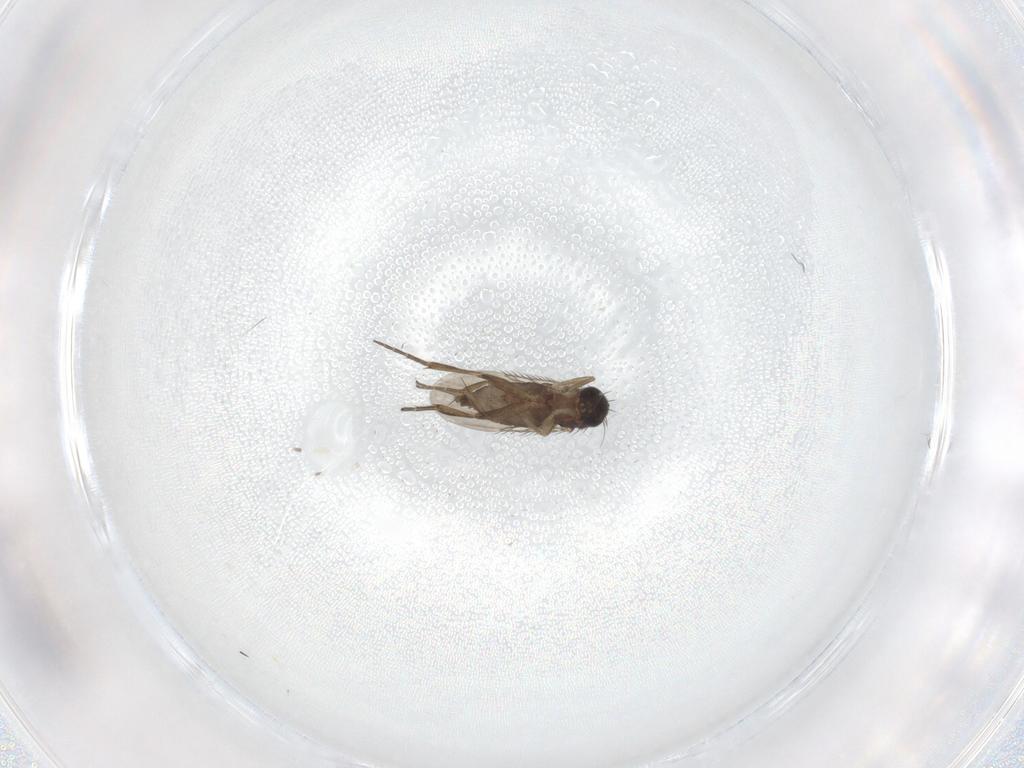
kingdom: Animalia
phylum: Arthropoda
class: Insecta
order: Diptera
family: Phoridae
